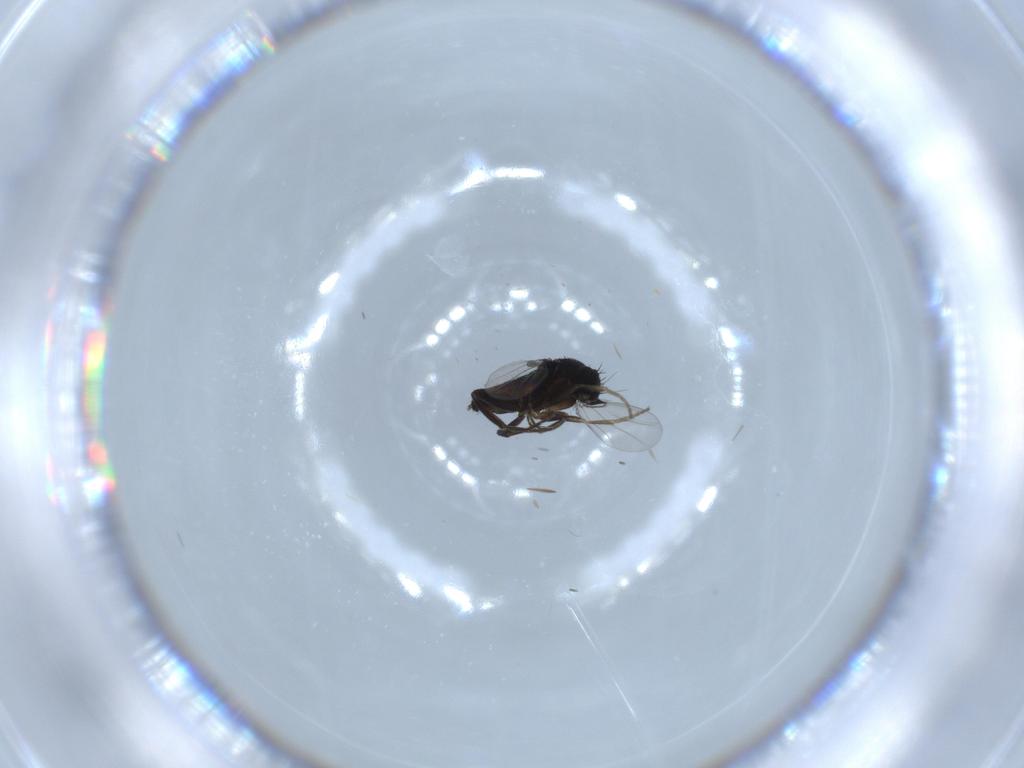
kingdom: Animalia
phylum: Arthropoda
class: Insecta
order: Diptera
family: Phoridae
